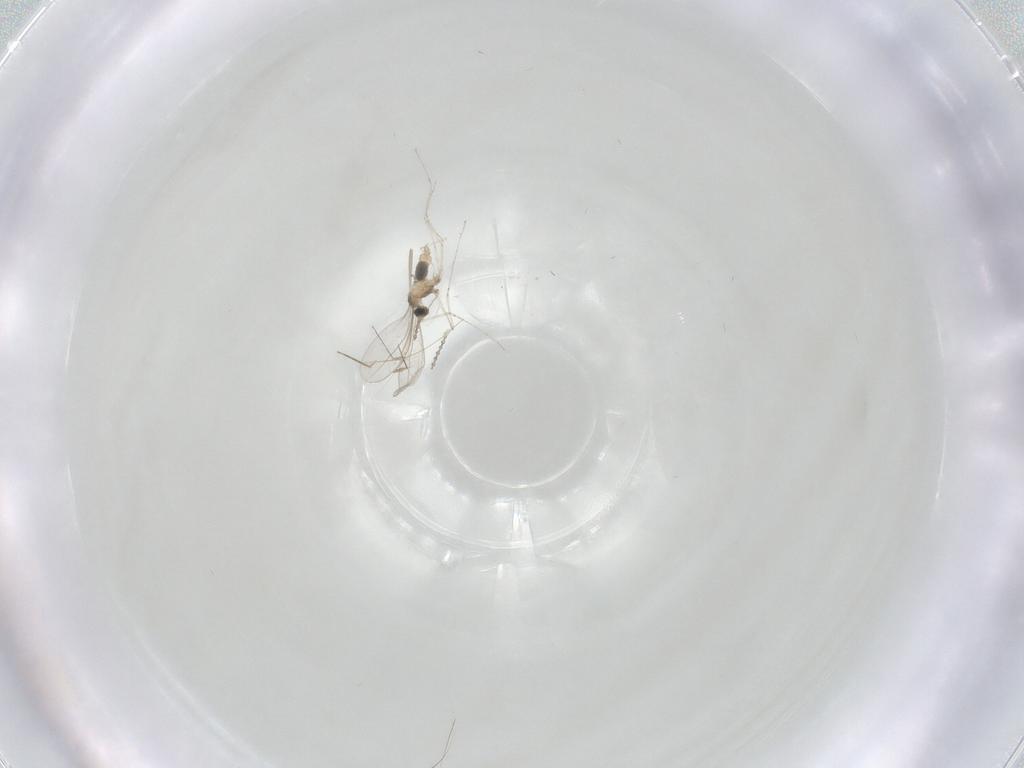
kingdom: Animalia
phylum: Arthropoda
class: Insecta
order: Diptera
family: Cecidomyiidae
